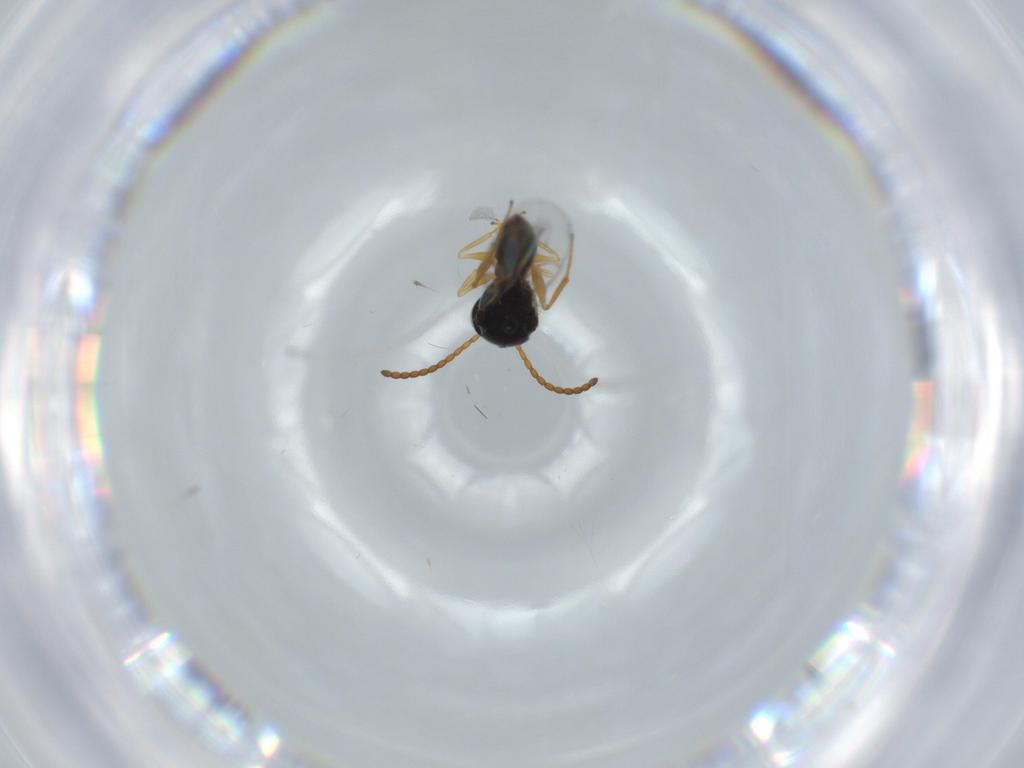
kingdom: Animalia
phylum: Arthropoda
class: Insecta
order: Hymenoptera
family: Figitidae
